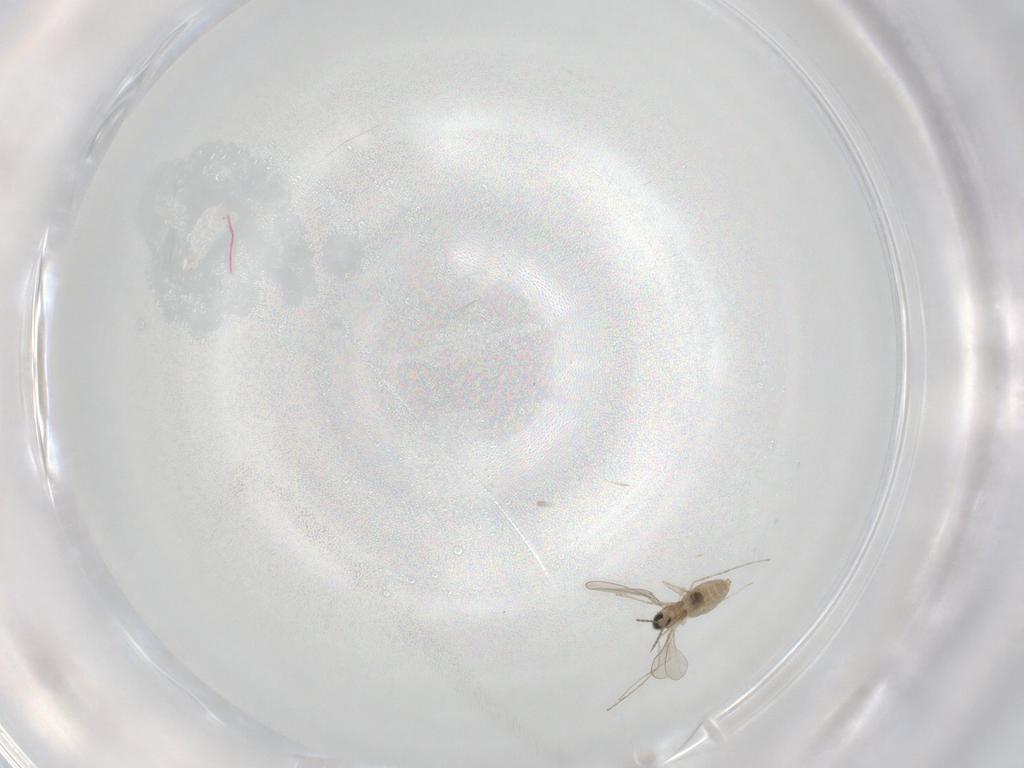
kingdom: Animalia
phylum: Arthropoda
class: Insecta
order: Diptera
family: Cecidomyiidae
